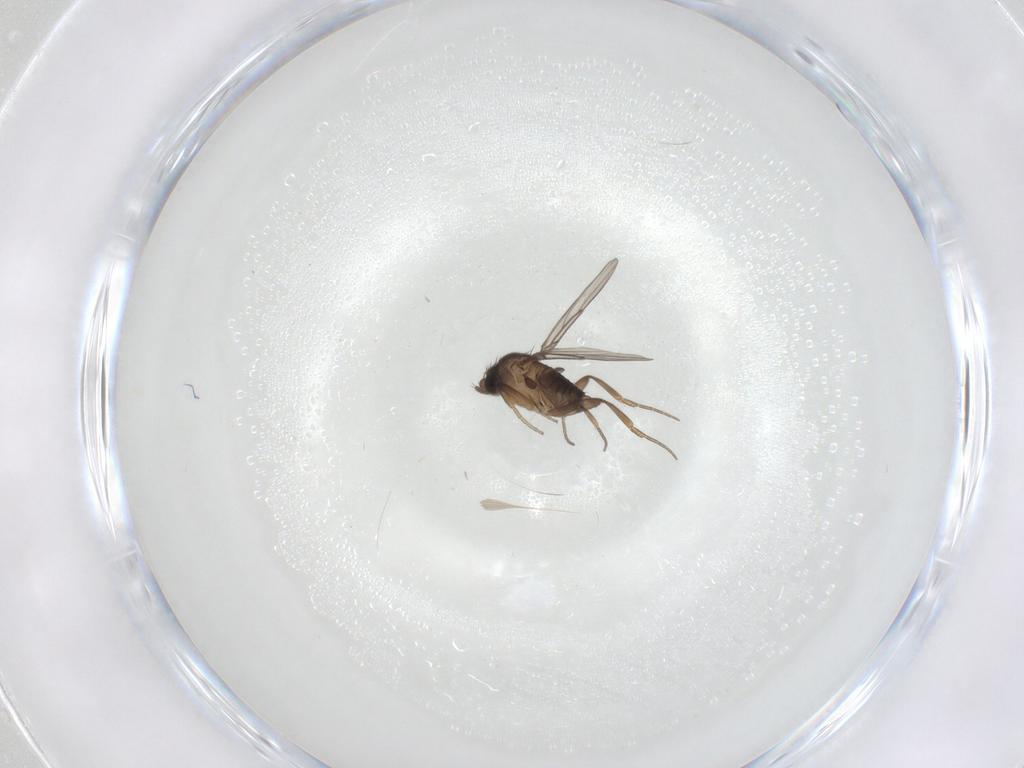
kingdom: Animalia
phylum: Arthropoda
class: Insecta
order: Diptera
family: Phoridae
